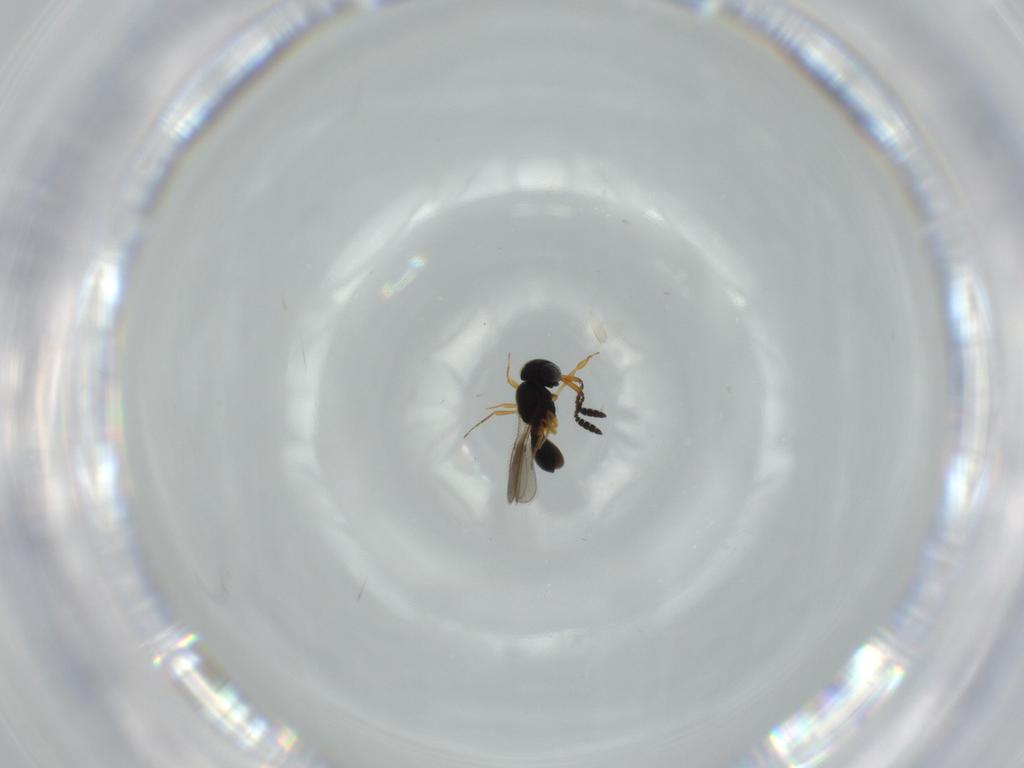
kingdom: Animalia
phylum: Arthropoda
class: Insecta
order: Hymenoptera
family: Scelionidae
